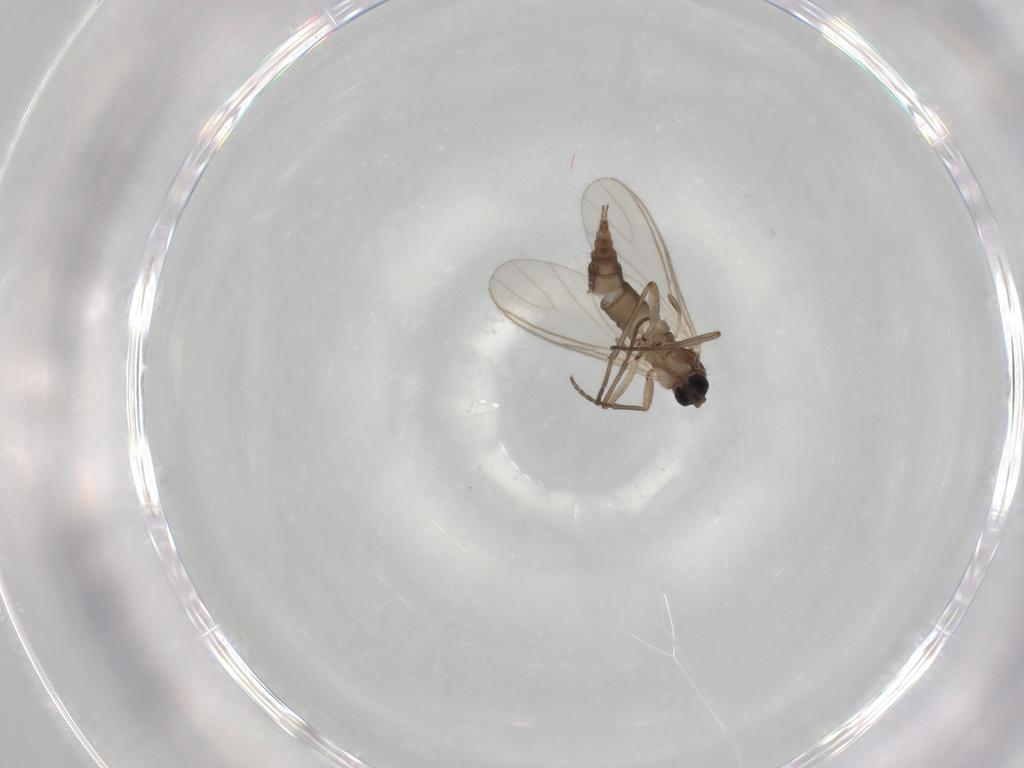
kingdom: Animalia
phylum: Arthropoda
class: Insecta
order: Diptera
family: Sciaridae
